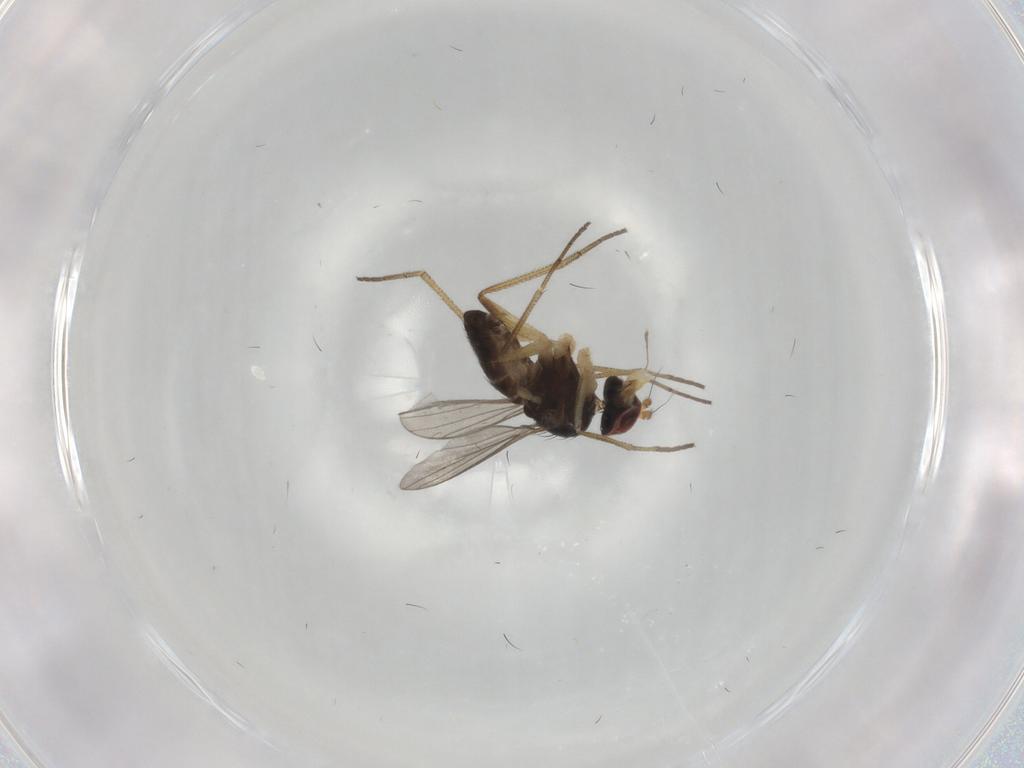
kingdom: Animalia
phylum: Arthropoda
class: Insecta
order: Diptera
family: Dolichopodidae
